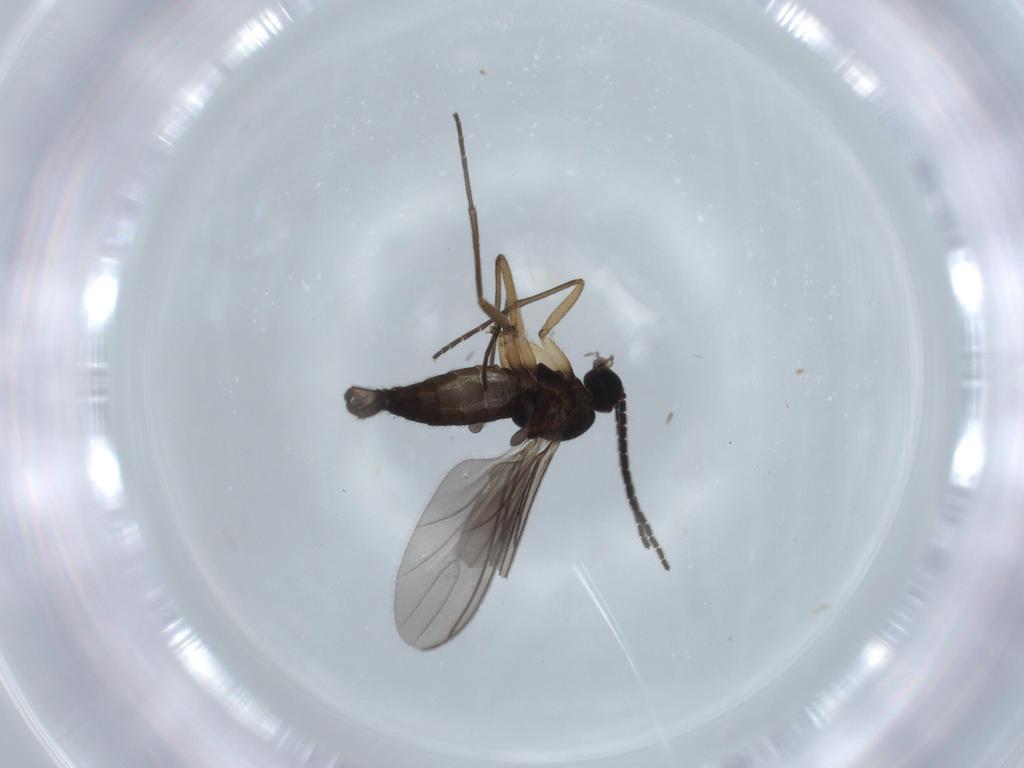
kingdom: Animalia
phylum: Arthropoda
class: Insecta
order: Diptera
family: Sciaridae
